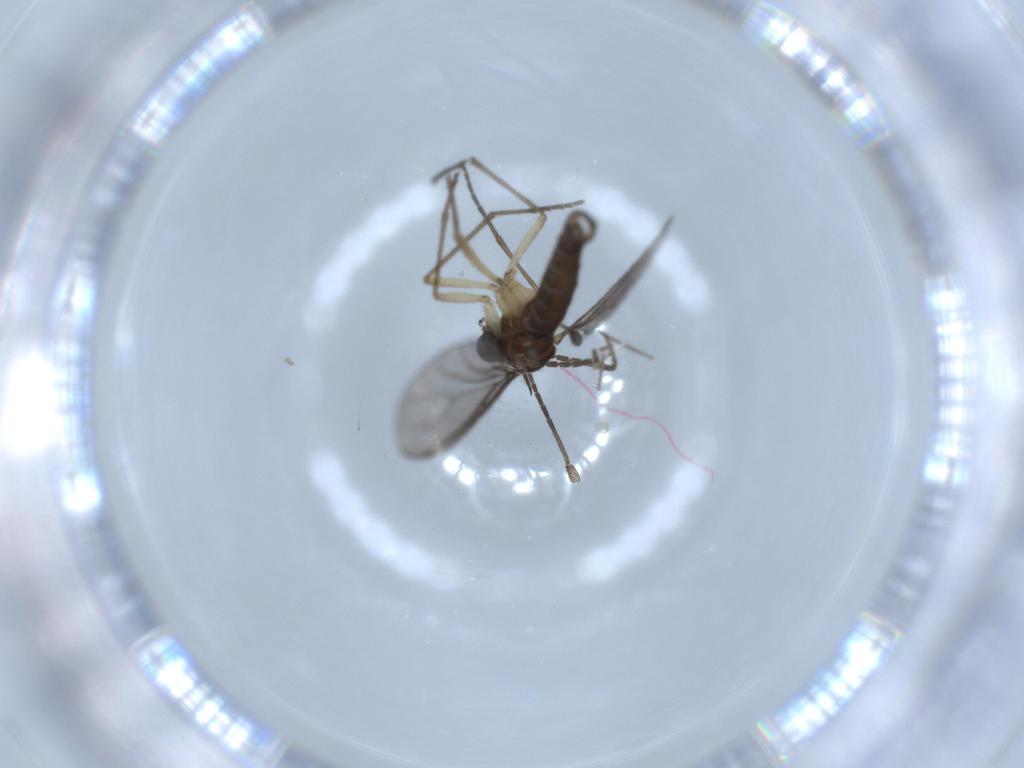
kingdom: Animalia
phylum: Arthropoda
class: Insecta
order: Diptera
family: Sciaridae
